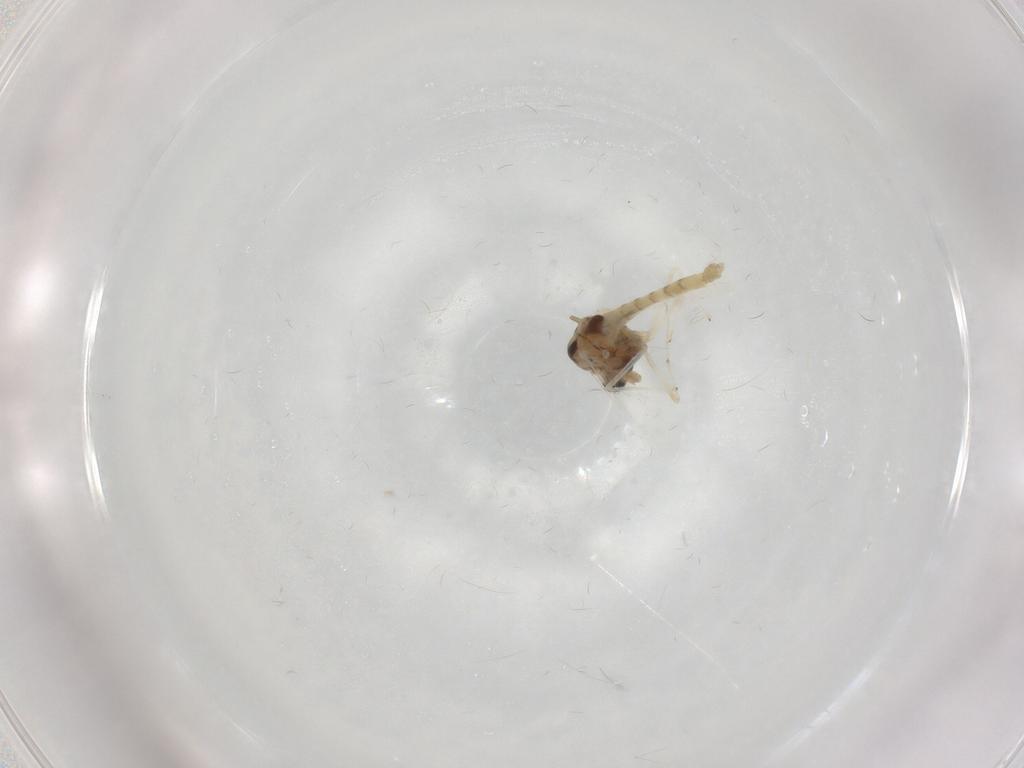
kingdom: Animalia
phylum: Arthropoda
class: Insecta
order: Diptera
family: Chironomidae
